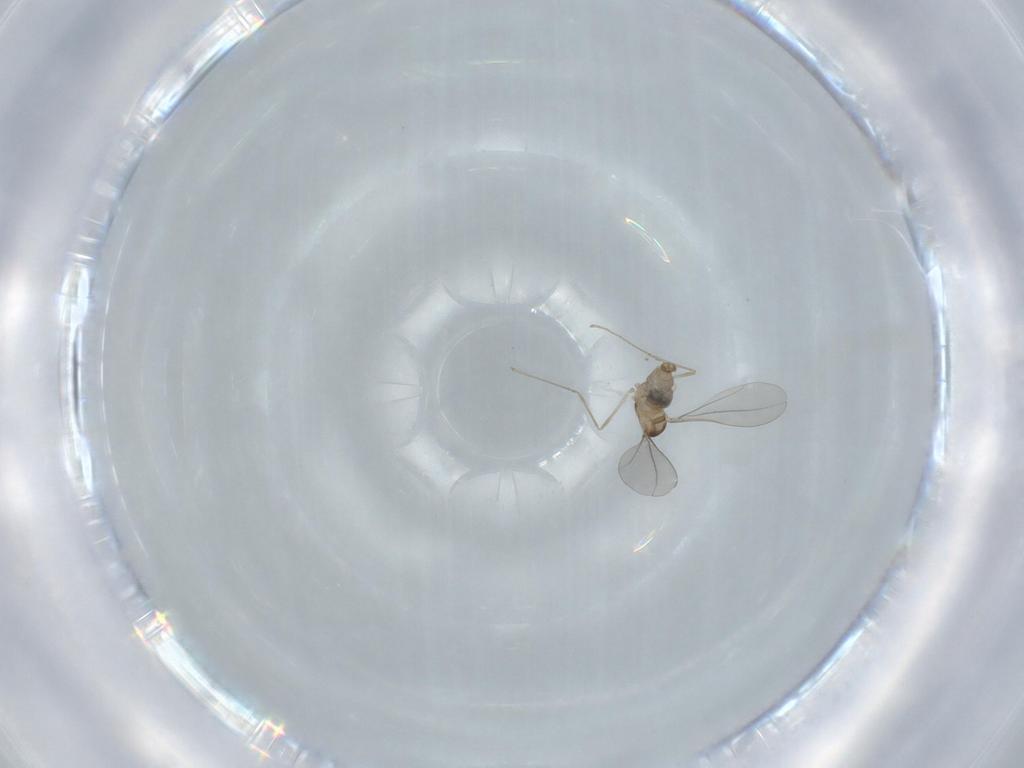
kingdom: Animalia
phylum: Arthropoda
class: Insecta
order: Diptera
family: Cecidomyiidae
